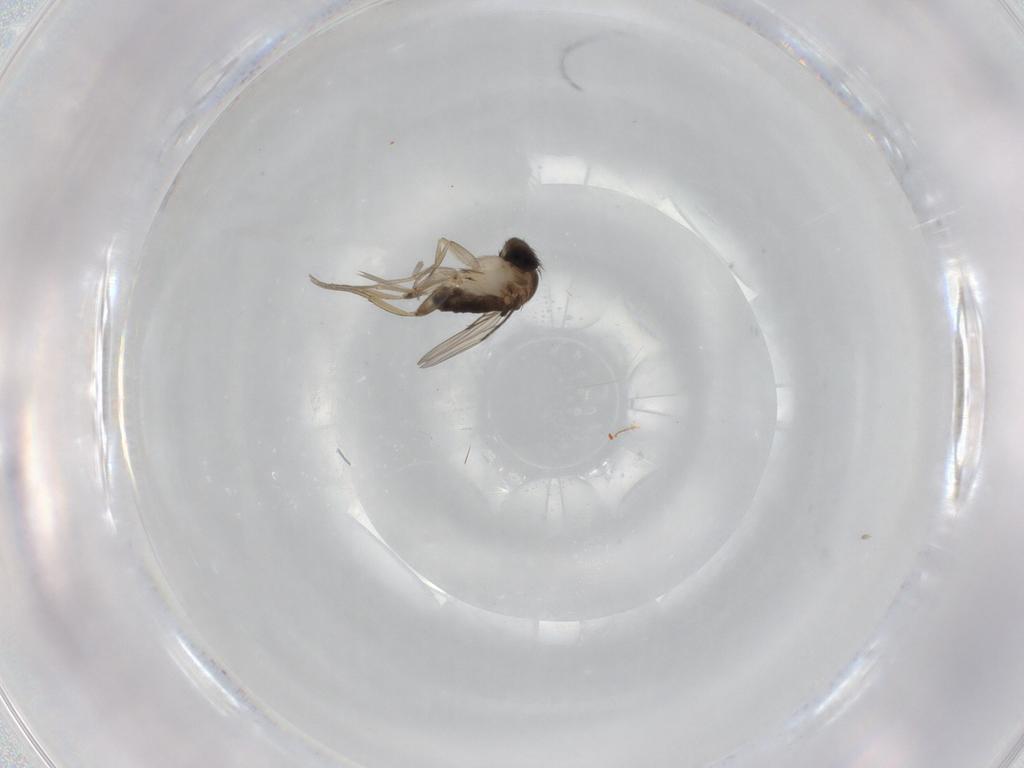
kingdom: Animalia
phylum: Arthropoda
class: Insecta
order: Diptera
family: Phoridae
